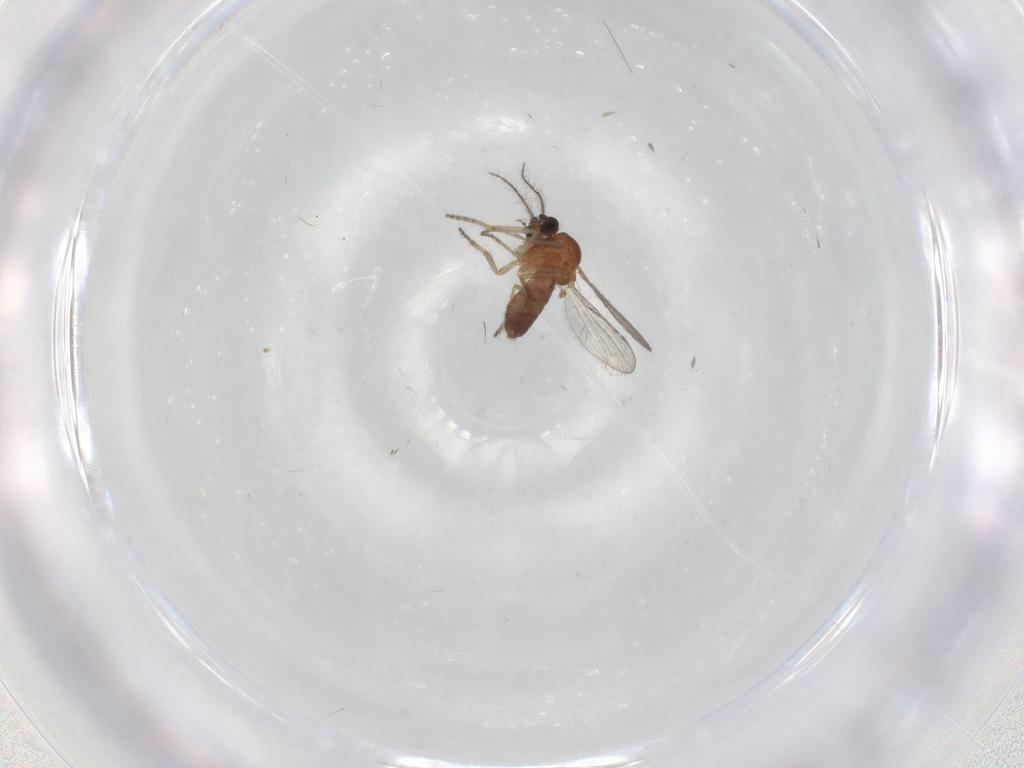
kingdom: Animalia
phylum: Arthropoda
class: Insecta
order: Diptera
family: Ceratopogonidae
